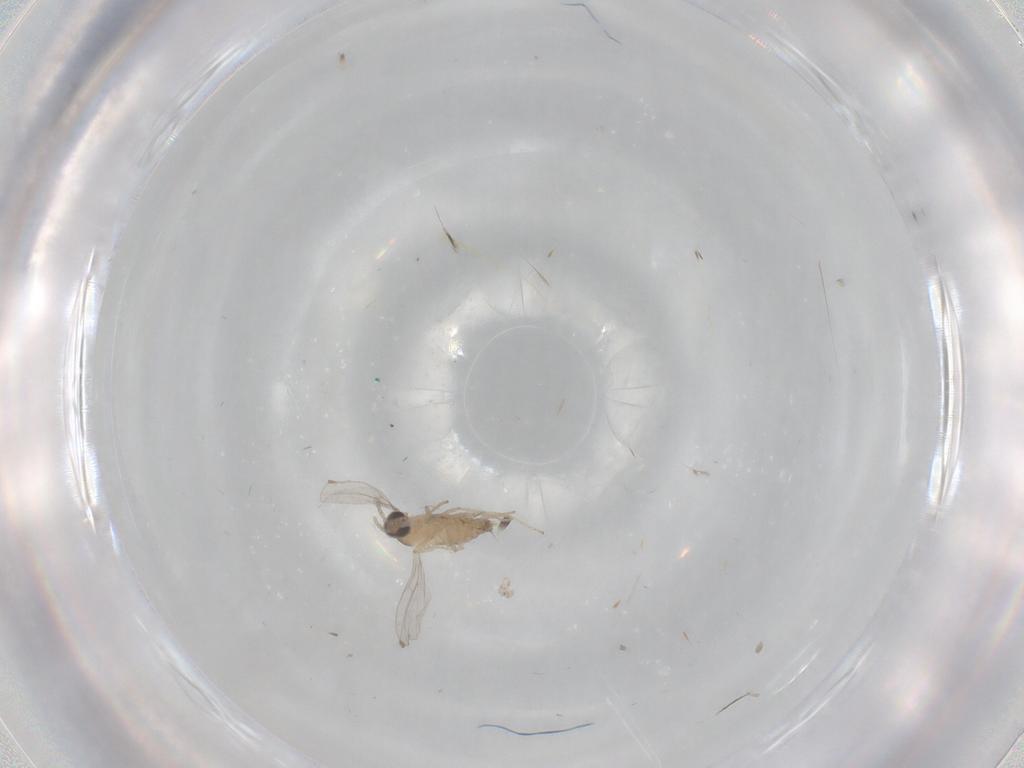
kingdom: Animalia
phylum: Arthropoda
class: Insecta
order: Diptera
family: Cecidomyiidae
